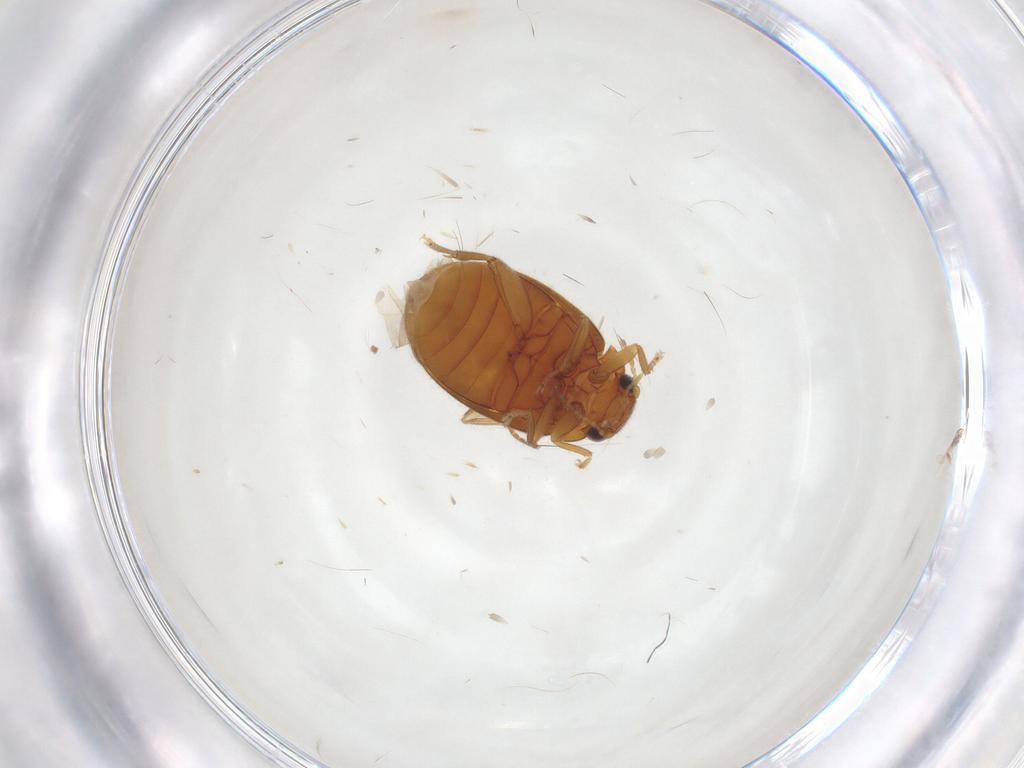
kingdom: Animalia
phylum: Arthropoda
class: Insecta
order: Coleoptera
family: Scirtidae
